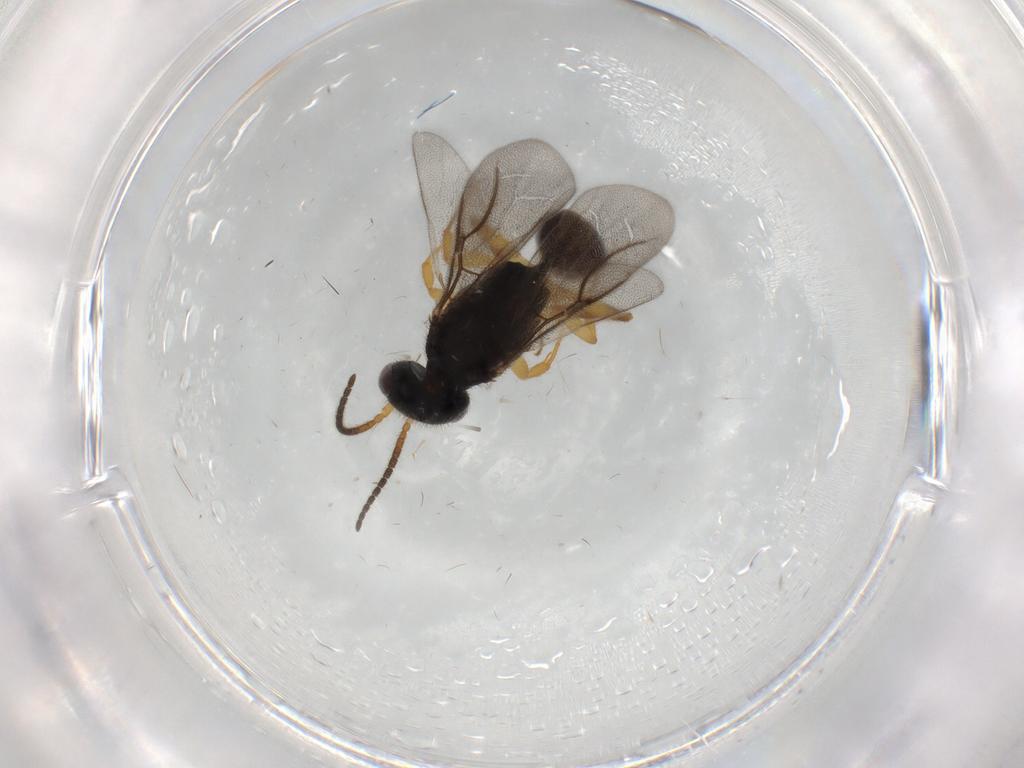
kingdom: Animalia
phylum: Arthropoda
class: Insecta
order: Hymenoptera
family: Bethylidae
